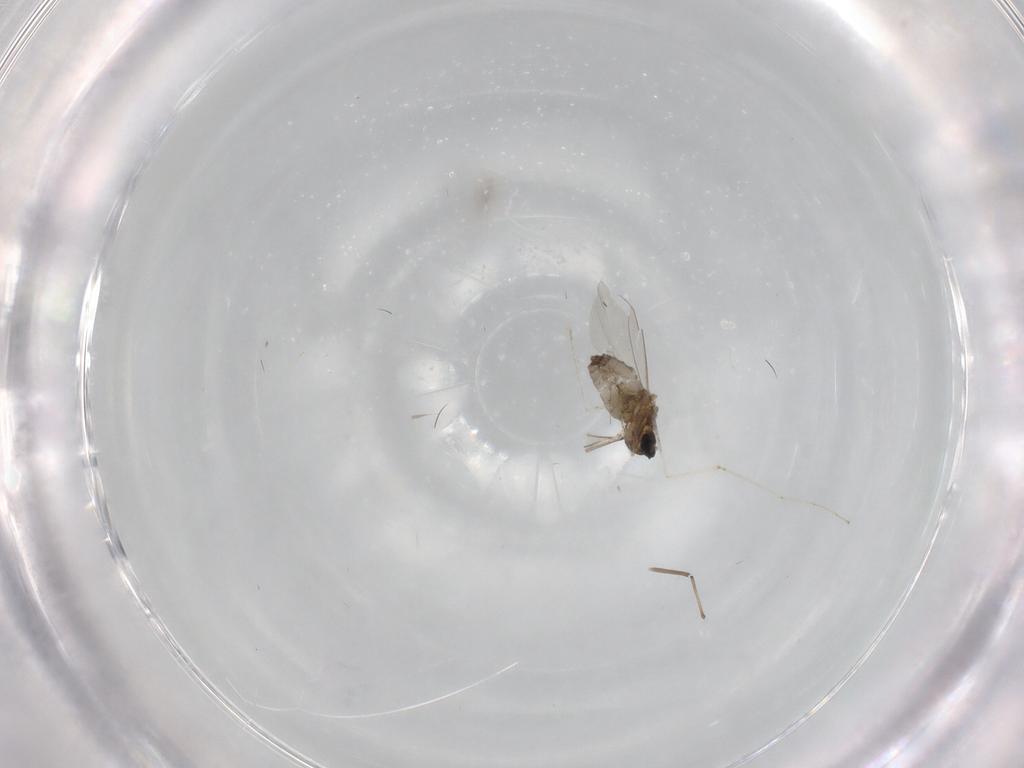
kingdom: Animalia
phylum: Arthropoda
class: Insecta
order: Diptera
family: Chironomidae
